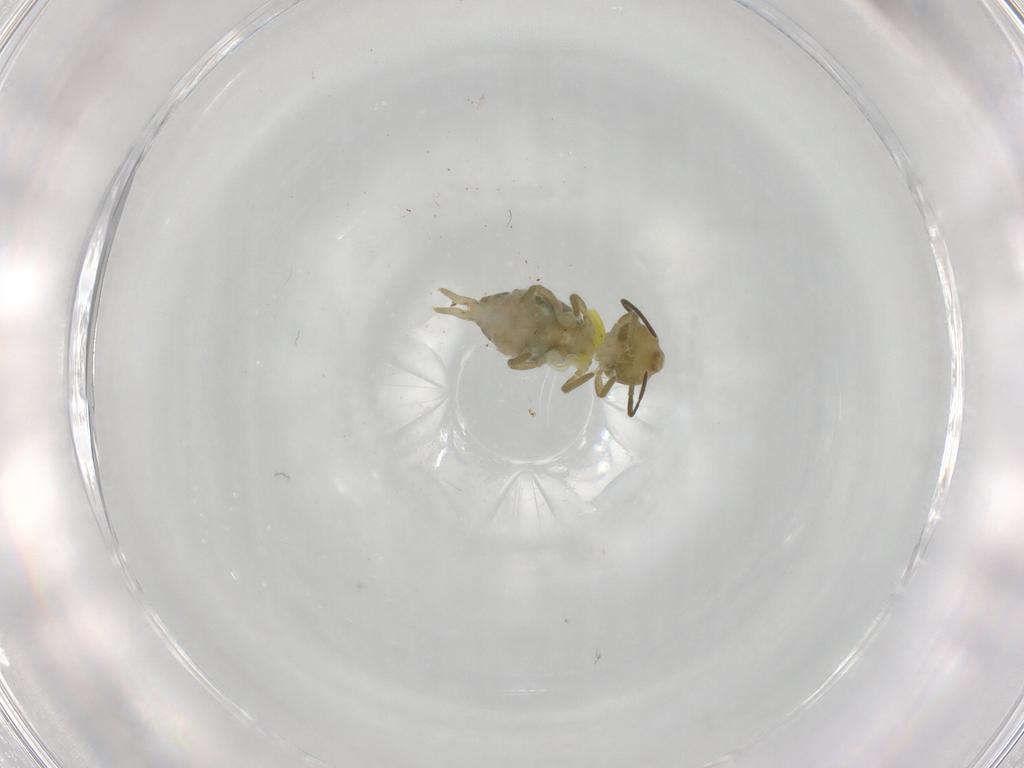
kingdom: Animalia
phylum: Arthropoda
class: Collembola
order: Symphypleona
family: Sminthuridae
